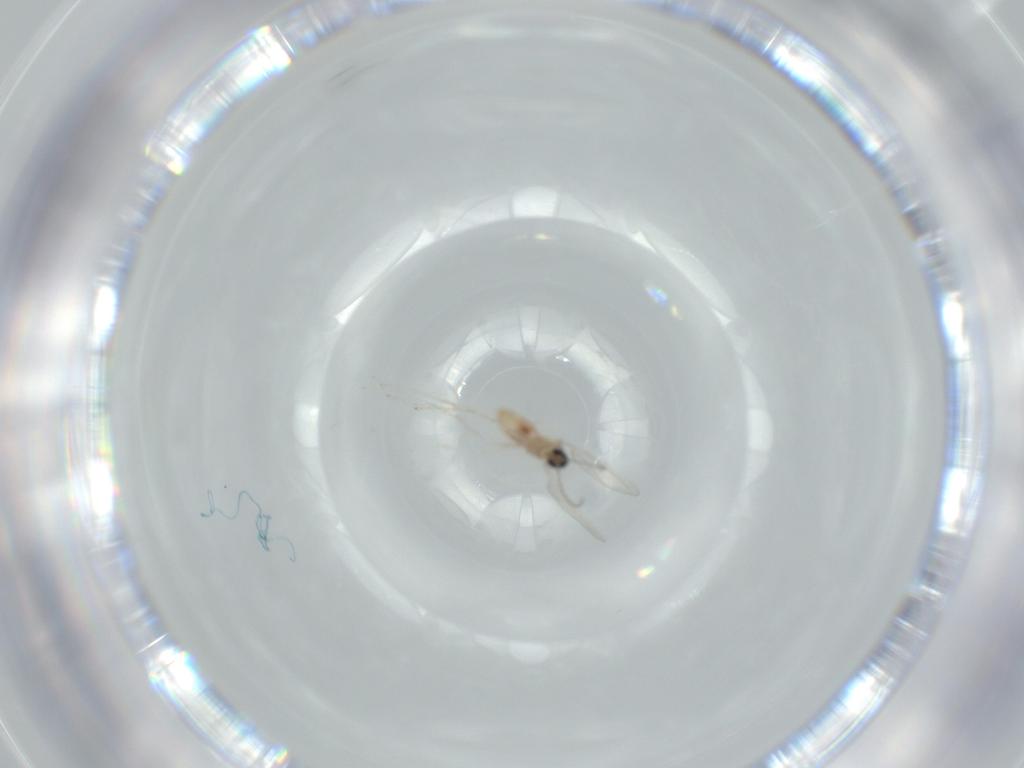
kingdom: Animalia
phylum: Arthropoda
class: Insecta
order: Diptera
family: Cecidomyiidae
